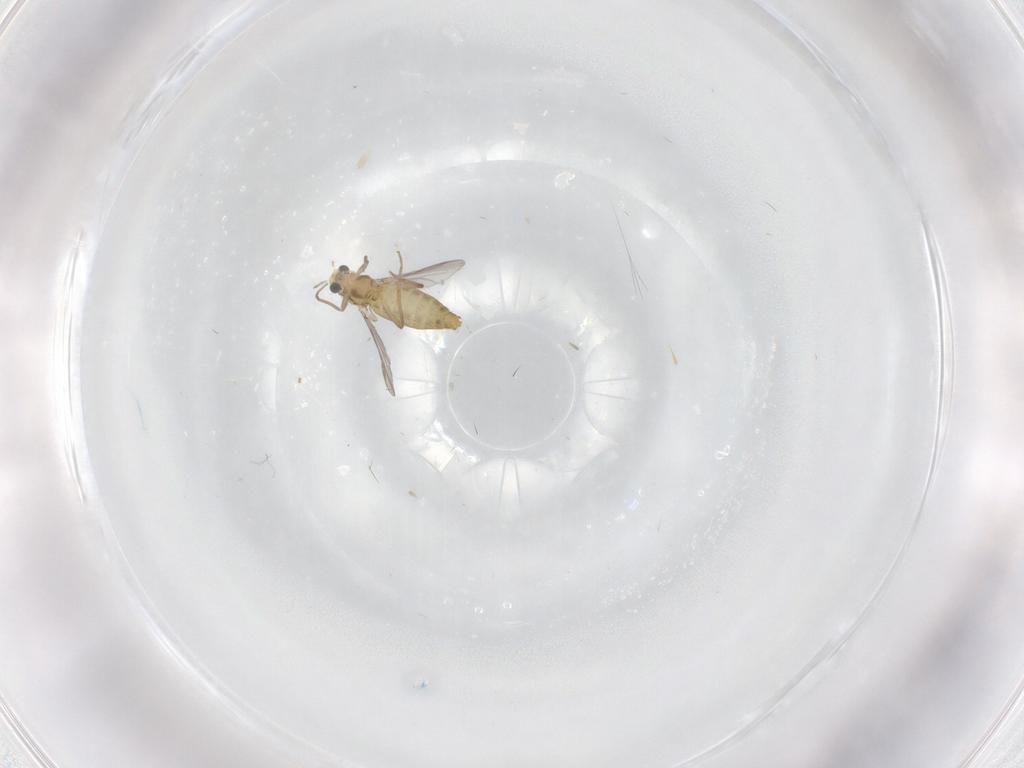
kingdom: Animalia
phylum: Arthropoda
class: Insecta
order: Diptera
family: Chironomidae
